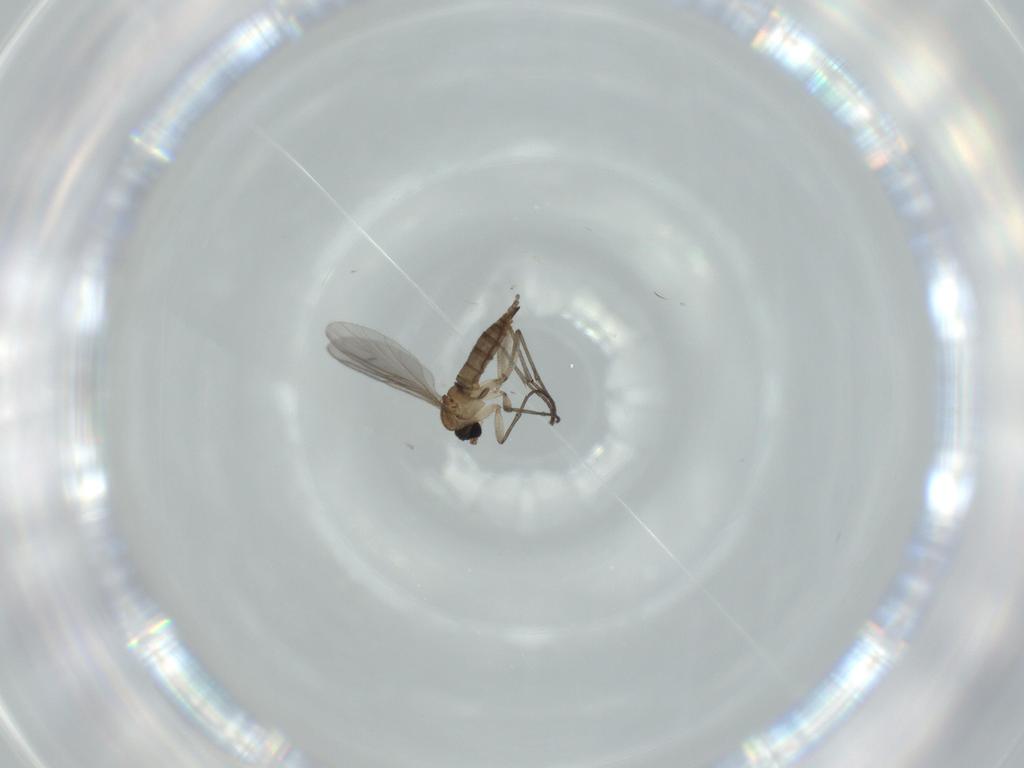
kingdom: Animalia
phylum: Arthropoda
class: Insecta
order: Diptera
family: Sciaridae
